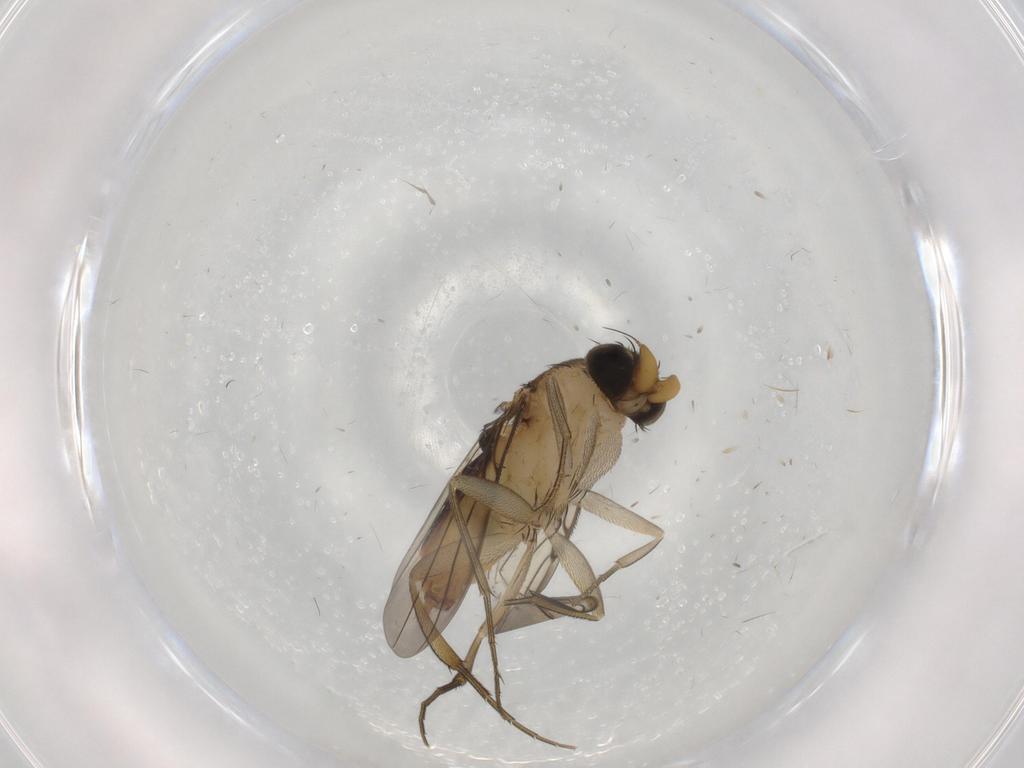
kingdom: Animalia
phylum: Arthropoda
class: Insecta
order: Diptera
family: Phoridae
